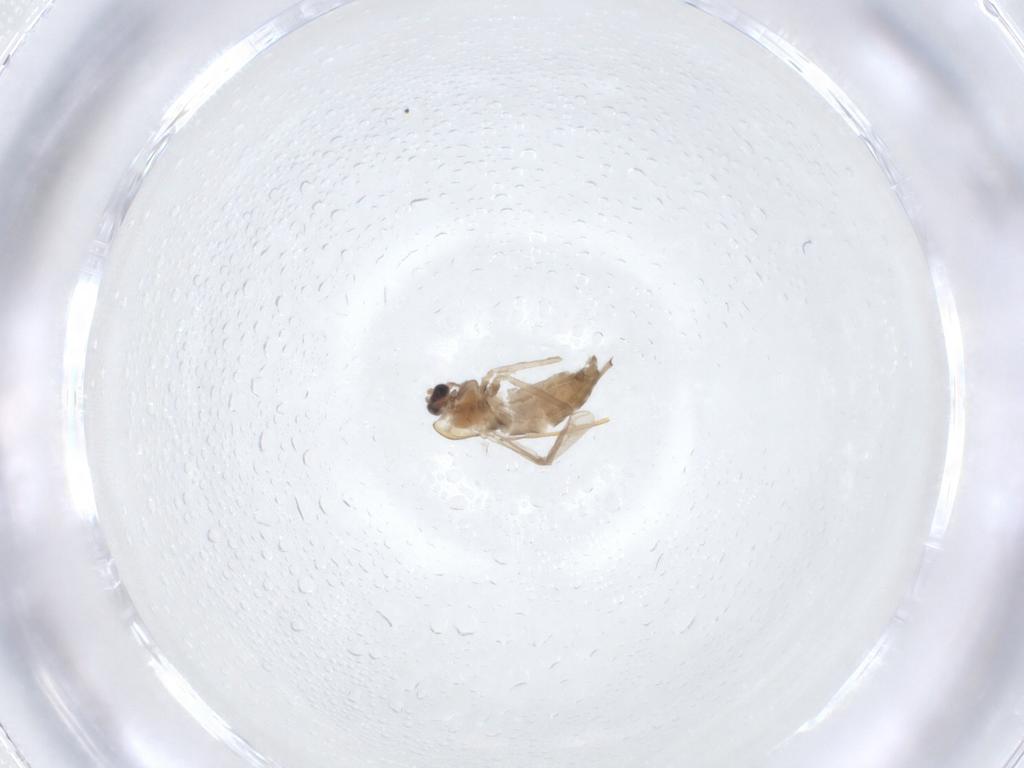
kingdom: Animalia
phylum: Arthropoda
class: Insecta
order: Diptera
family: Chironomidae
